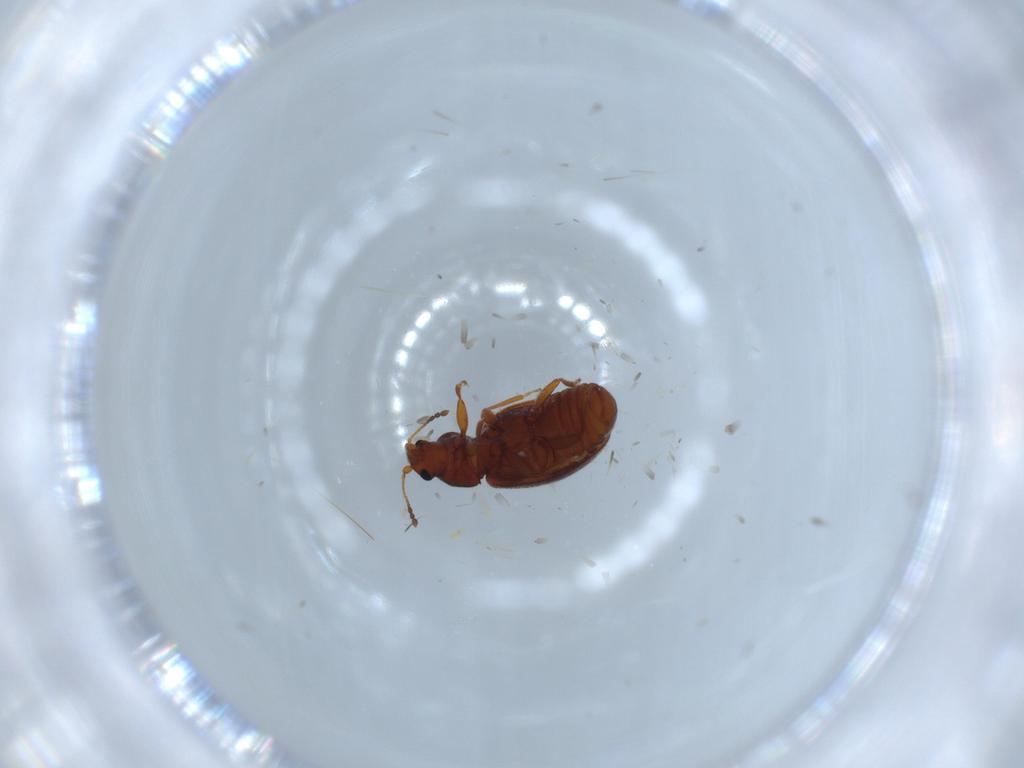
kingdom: Animalia
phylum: Arthropoda
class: Insecta
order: Coleoptera
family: Latridiidae
